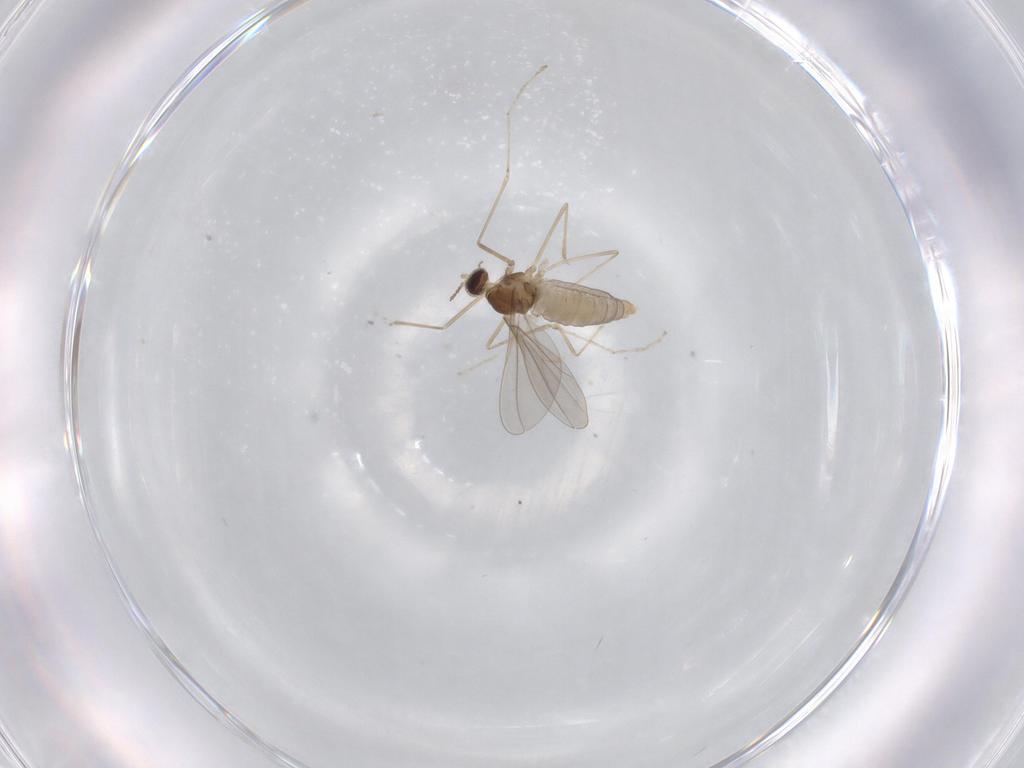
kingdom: Animalia
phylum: Arthropoda
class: Insecta
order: Diptera
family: Cecidomyiidae
